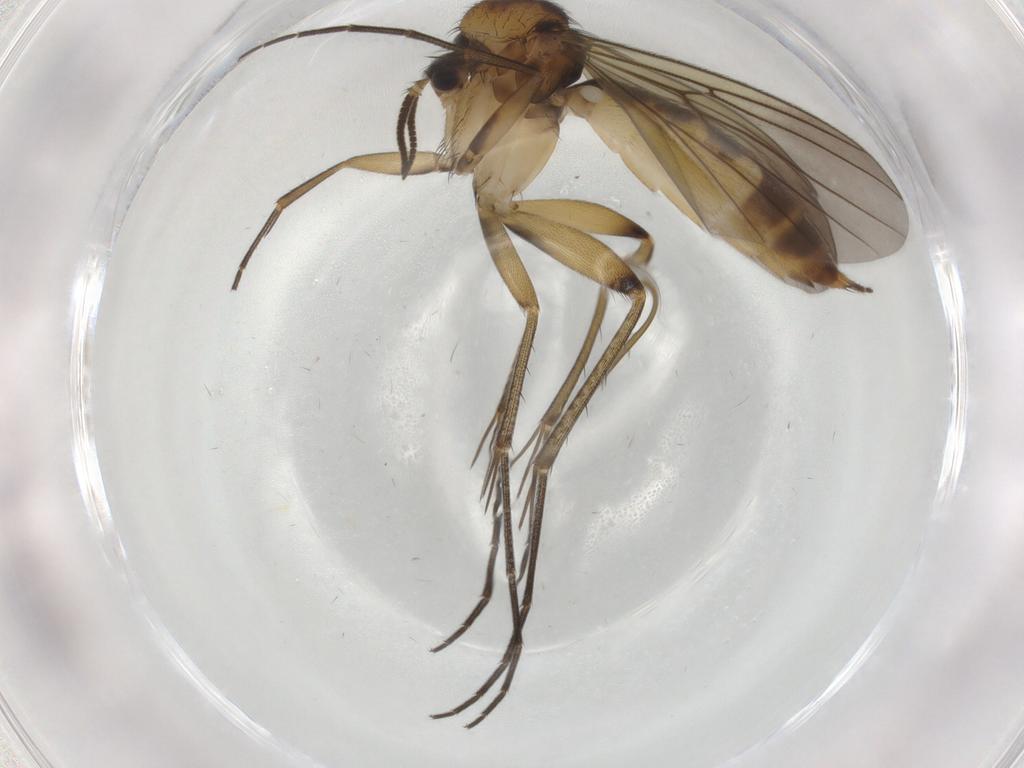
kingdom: Animalia
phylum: Arthropoda
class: Insecta
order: Diptera
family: Mycetophilidae
